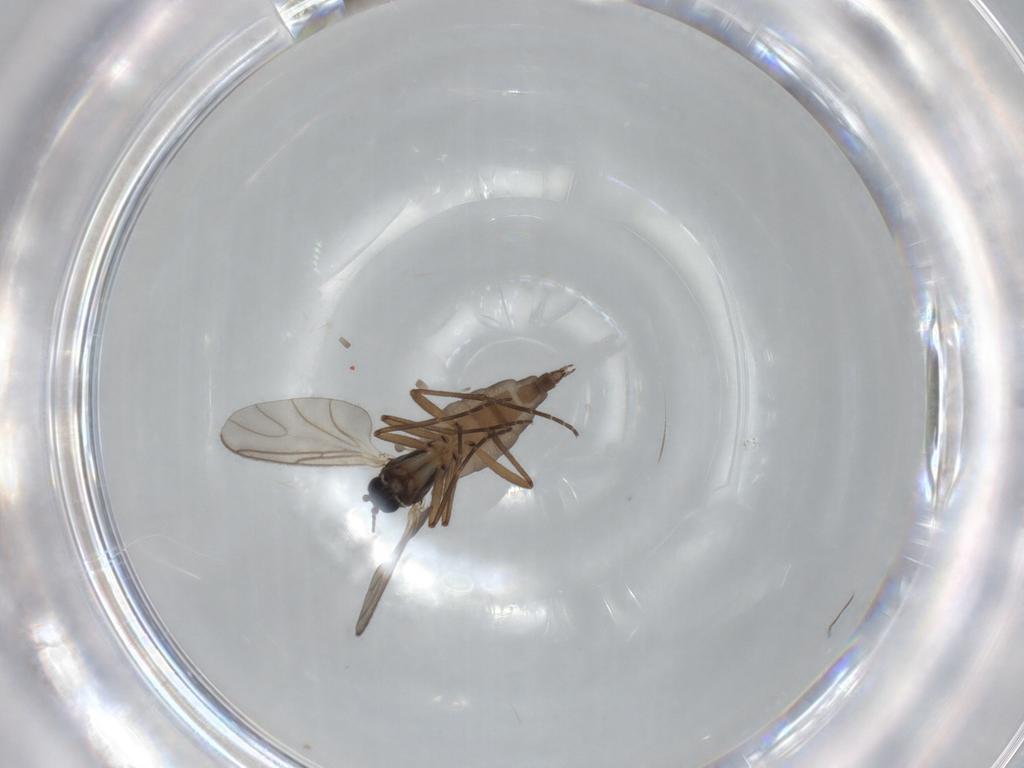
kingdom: Animalia
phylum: Arthropoda
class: Insecta
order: Diptera
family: Sciaridae
